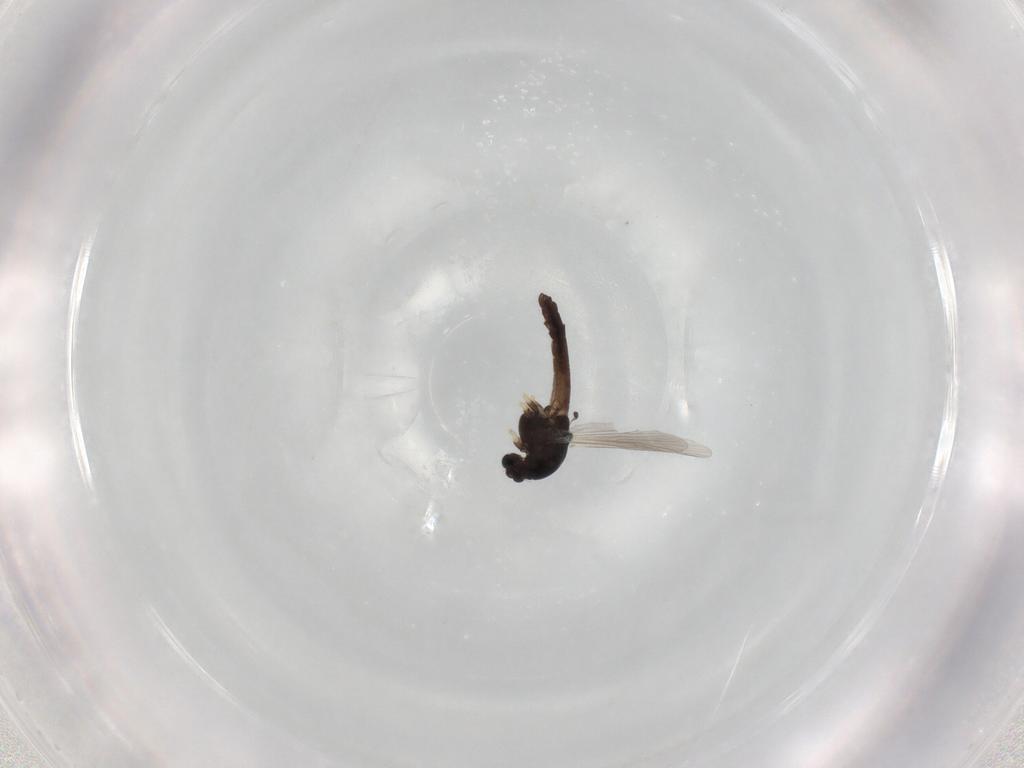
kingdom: Animalia
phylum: Arthropoda
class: Insecta
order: Diptera
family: Chironomidae
